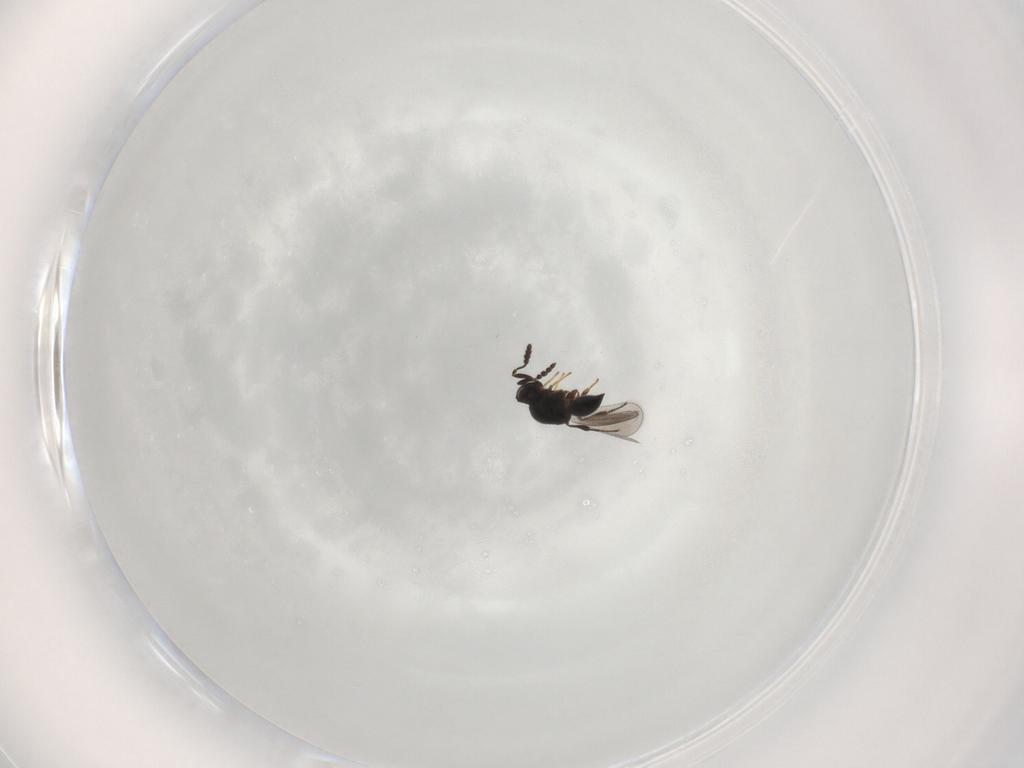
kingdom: Animalia
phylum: Arthropoda
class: Insecta
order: Hymenoptera
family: Platygastridae
